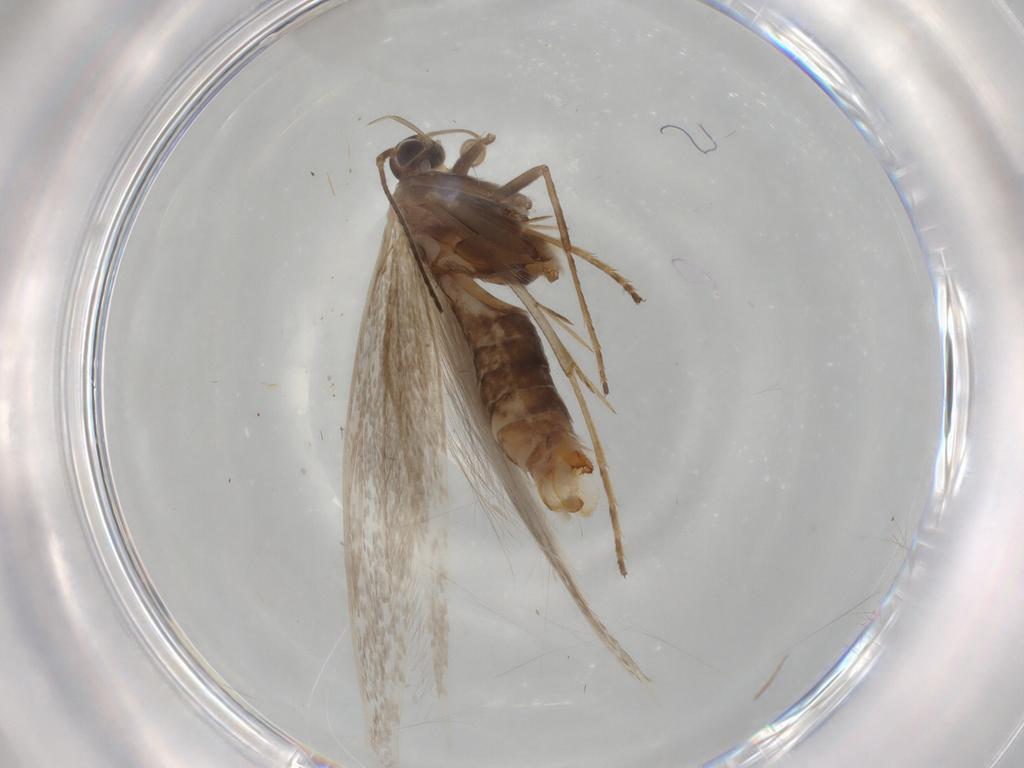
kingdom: Animalia
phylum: Arthropoda
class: Insecta
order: Lepidoptera
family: Coleophoridae
